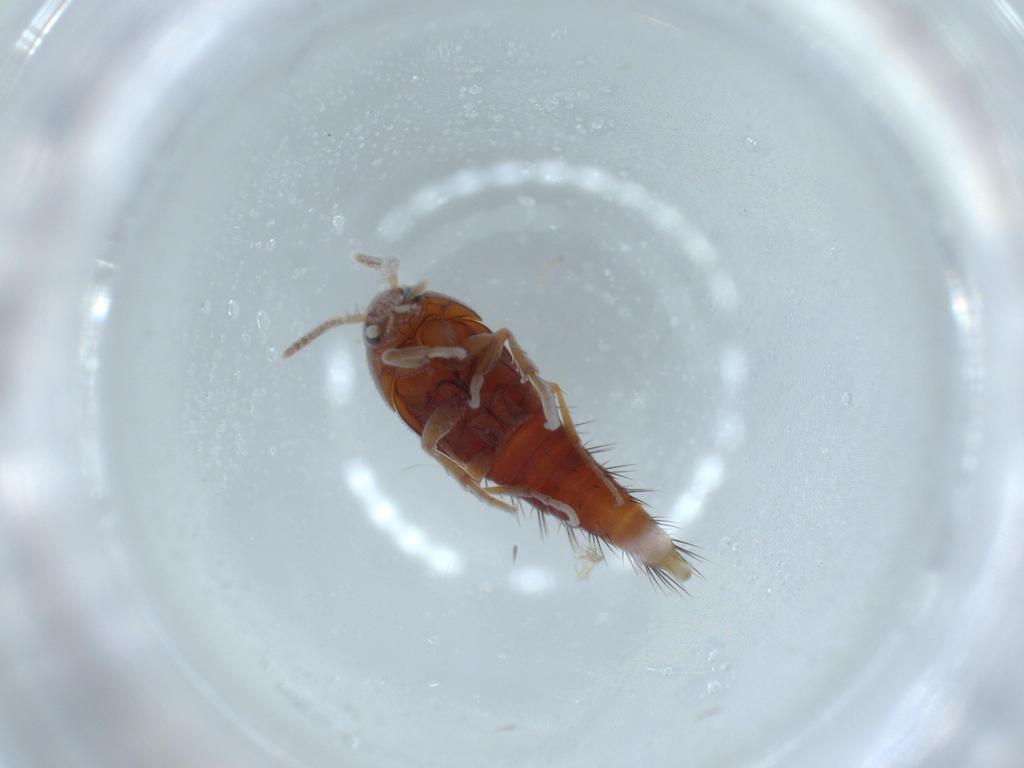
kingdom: Animalia
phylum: Arthropoda
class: Insecta
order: Coleoptera
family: Staphylinidae
